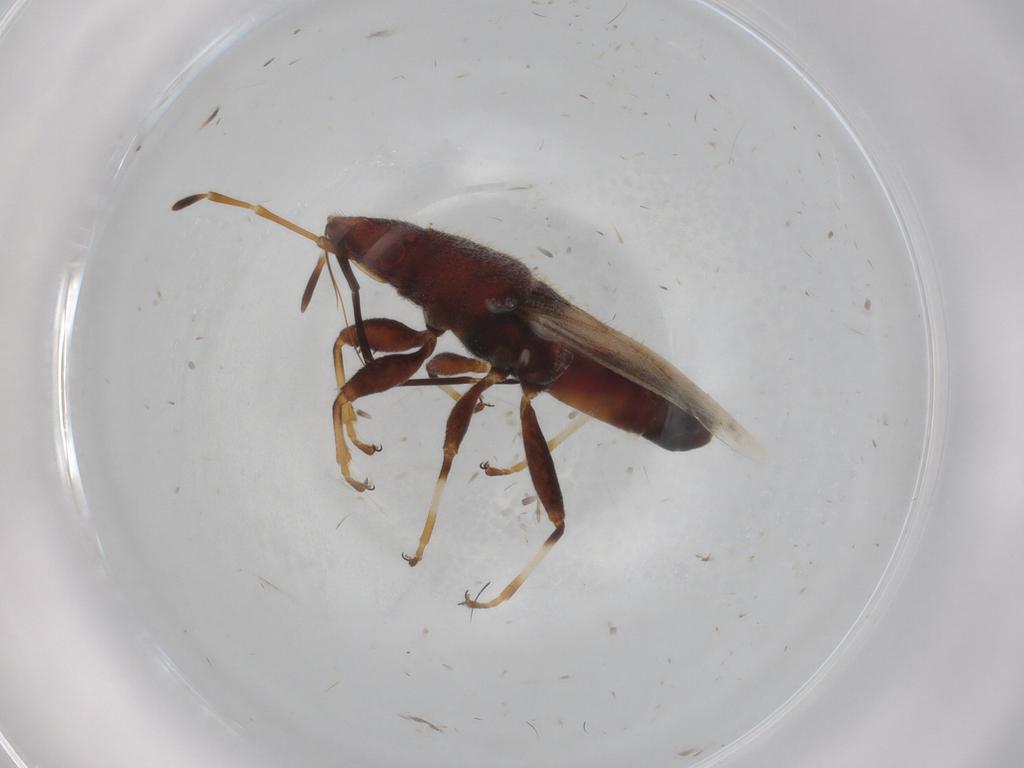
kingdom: Animalia
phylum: Arthropoda
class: Insecta
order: Hemiptera
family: Oxycarenidae
